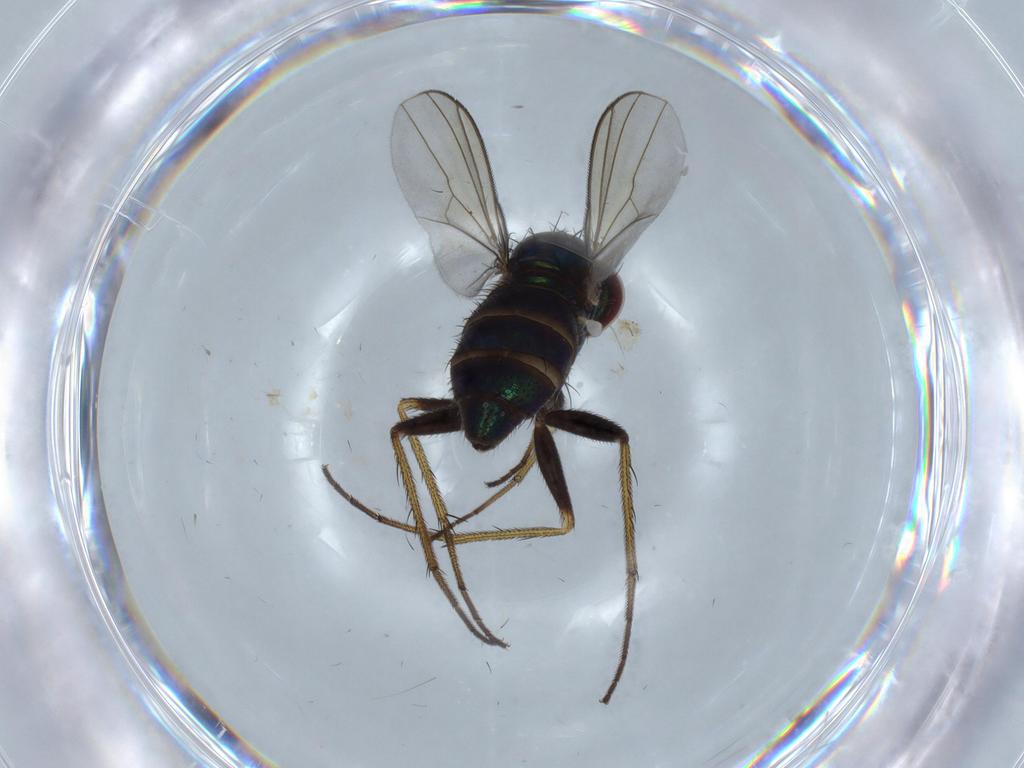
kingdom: Animalia
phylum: Arthropoda
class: Insecta
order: Diptera
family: Dolichopodidae
